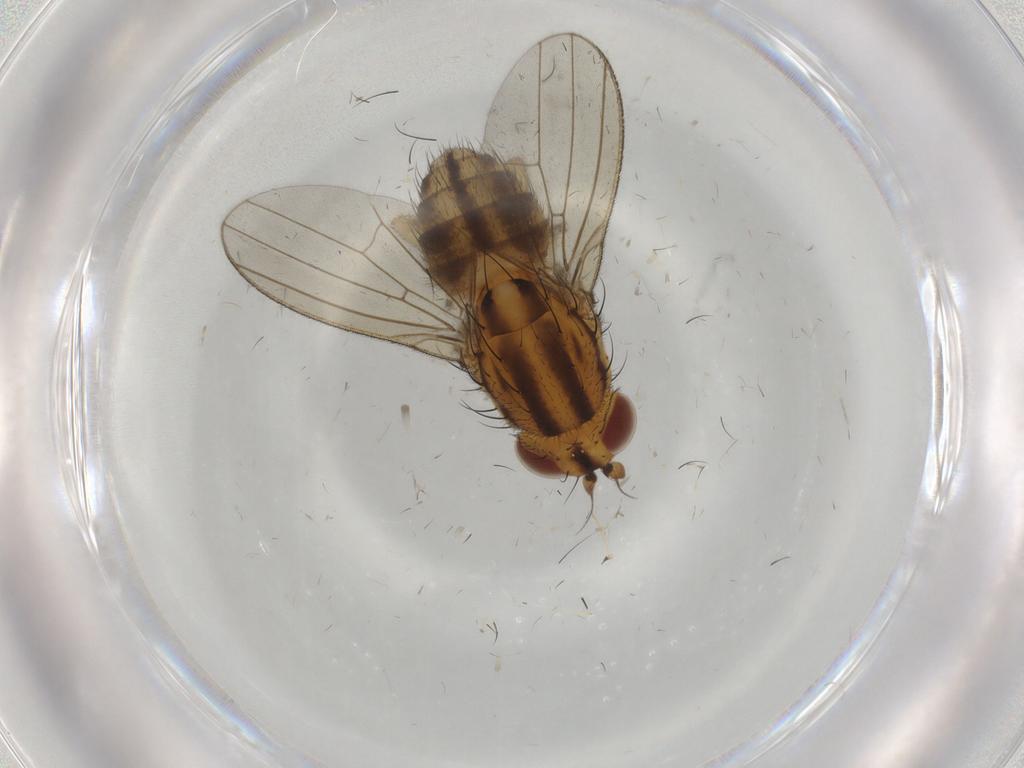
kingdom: Animalia
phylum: Arthropoda
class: Insecta
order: Diptera
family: Lauxaniidae
